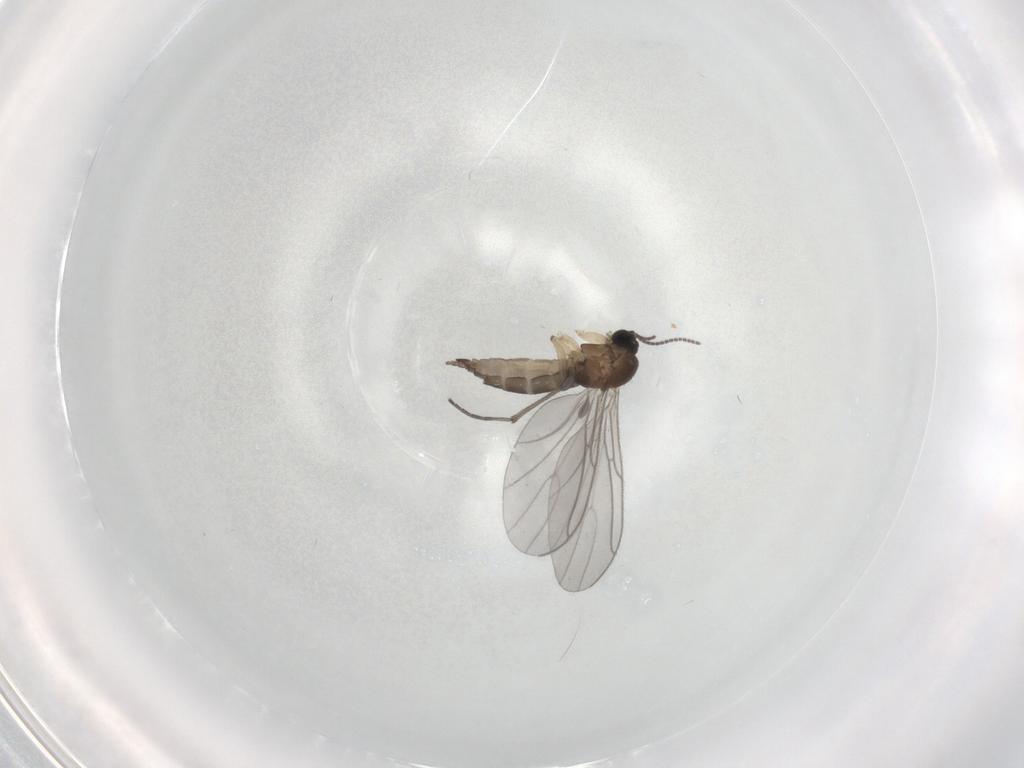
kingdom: Animalia
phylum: Arthropoda
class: Insecta
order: Diptera
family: Sciaridae
